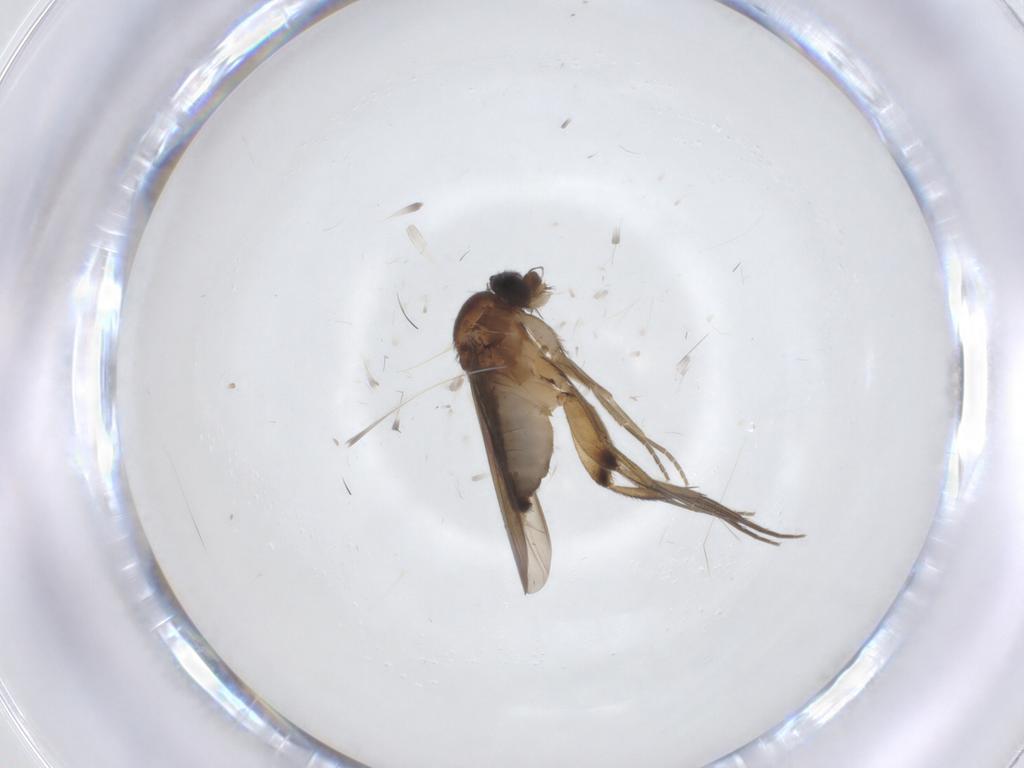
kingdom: Animalia
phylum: Arthropoda
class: Insecta
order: Diptera
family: Phoridae
